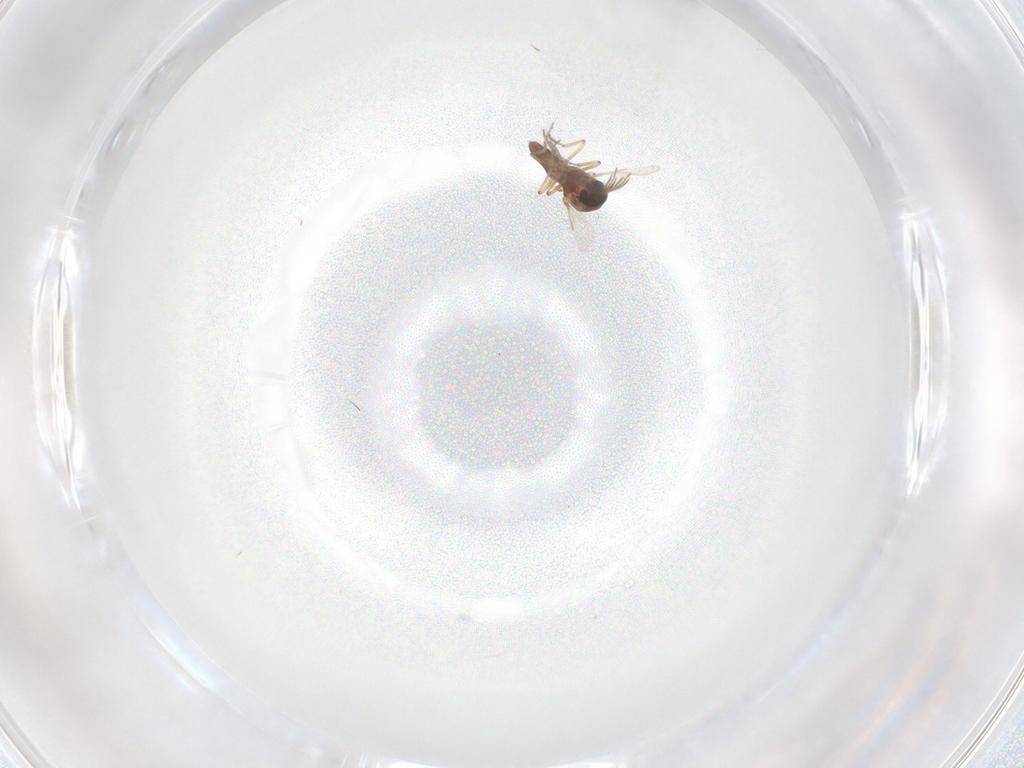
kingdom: Animalia
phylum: Arthropoda
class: Insecta
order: Diptera
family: Ceratopogonidae
